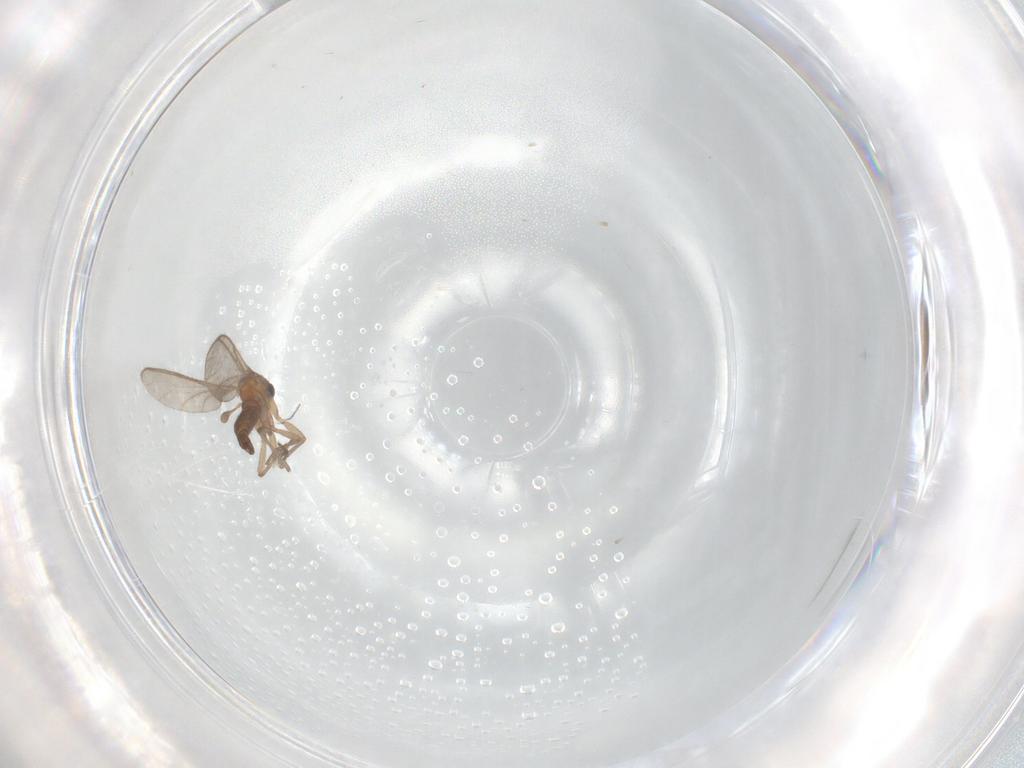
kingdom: Animalia
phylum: Arthropoda
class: Insecta
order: Diptera
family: Sciaridae
